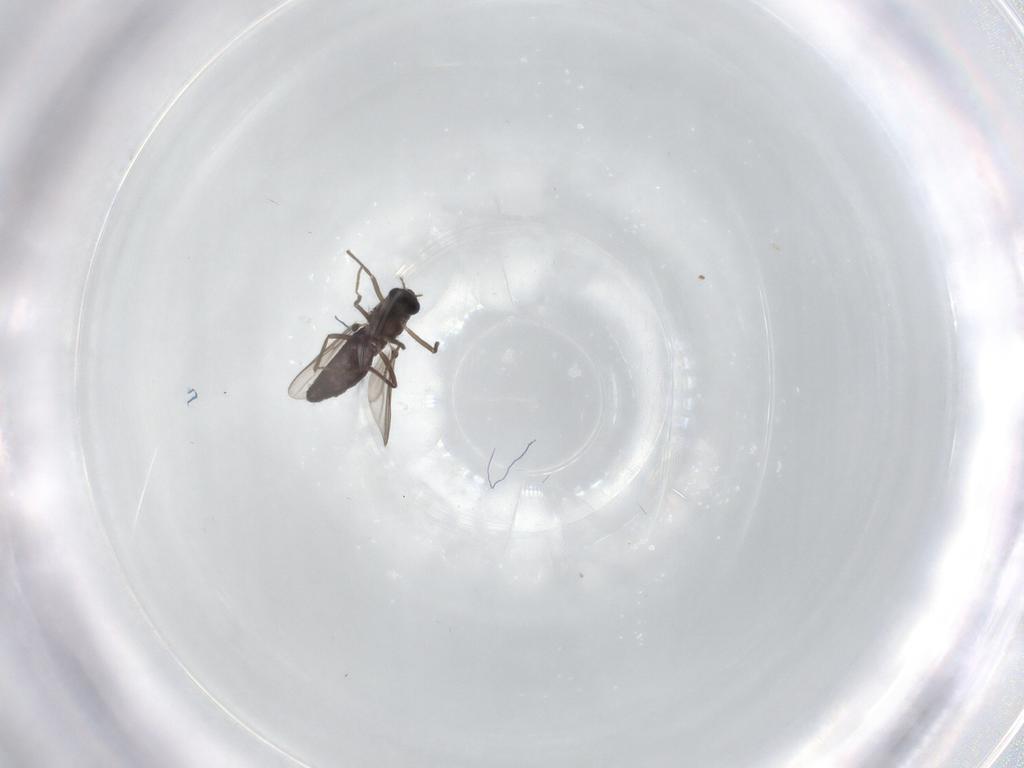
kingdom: Animalia
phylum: Arthropoda
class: Insecta
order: Diptera
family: Chironomidae
